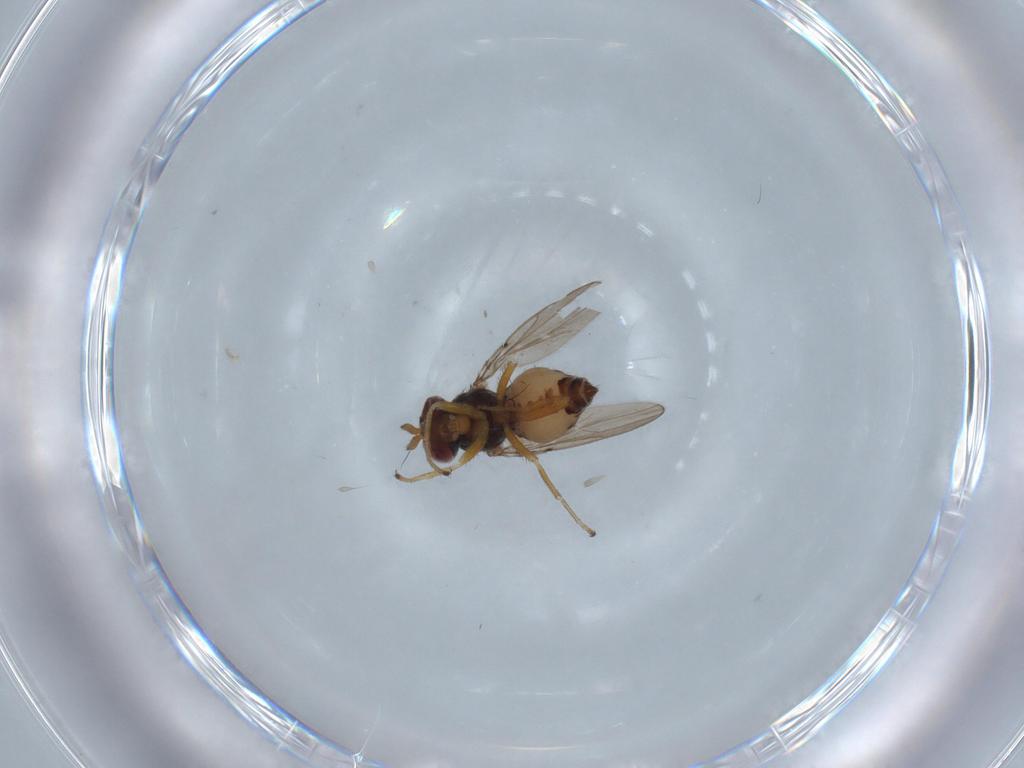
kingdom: Animalia
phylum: Arthropoda
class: Insecta
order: Diptera
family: Ephydridae
